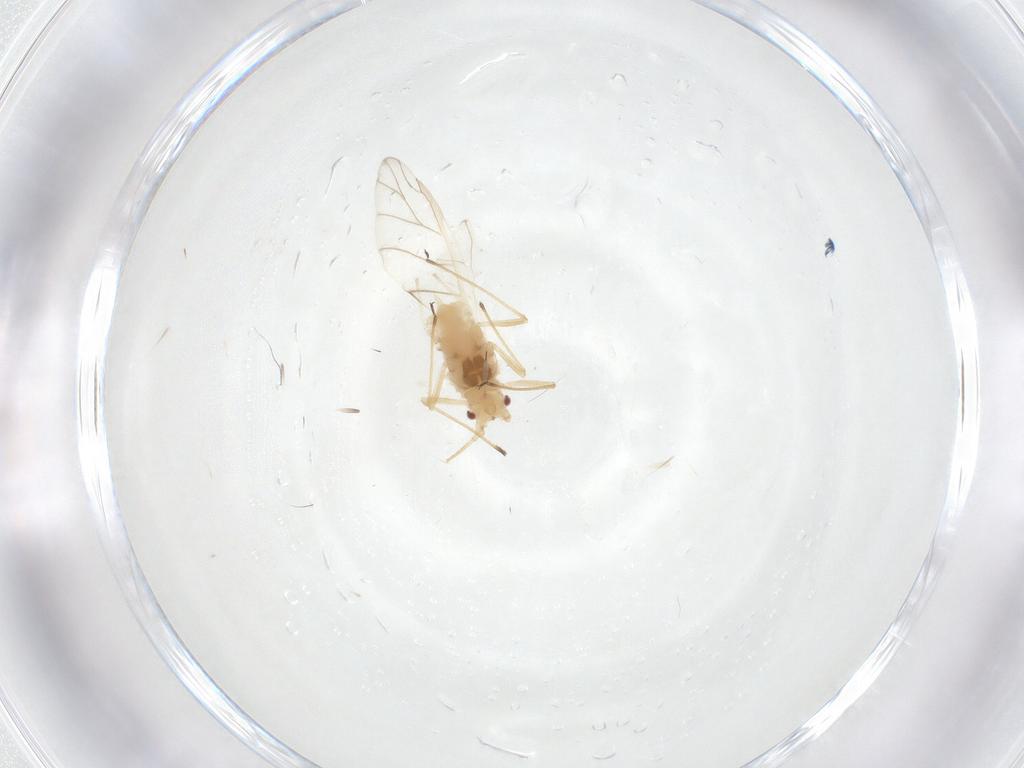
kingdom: Animalia
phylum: Arthropoda
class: Insecta
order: Hemiptera
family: Aphididae
